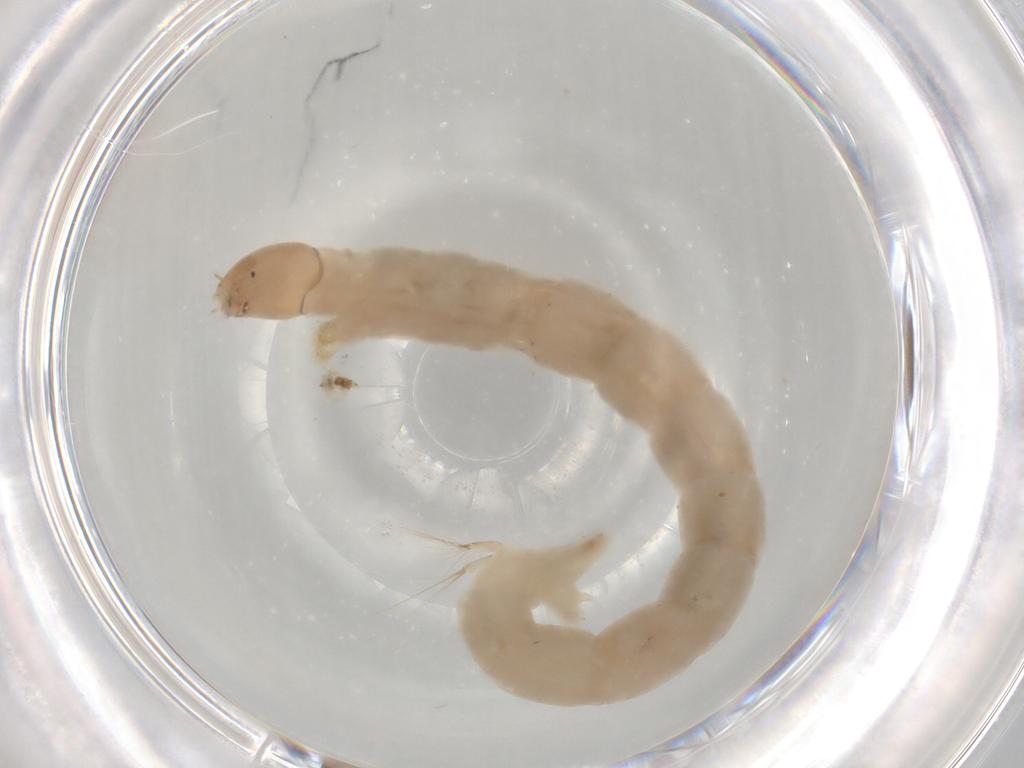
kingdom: Animalia
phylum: Arthropoda
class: Insecta
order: Diptera
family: Chironomidae
